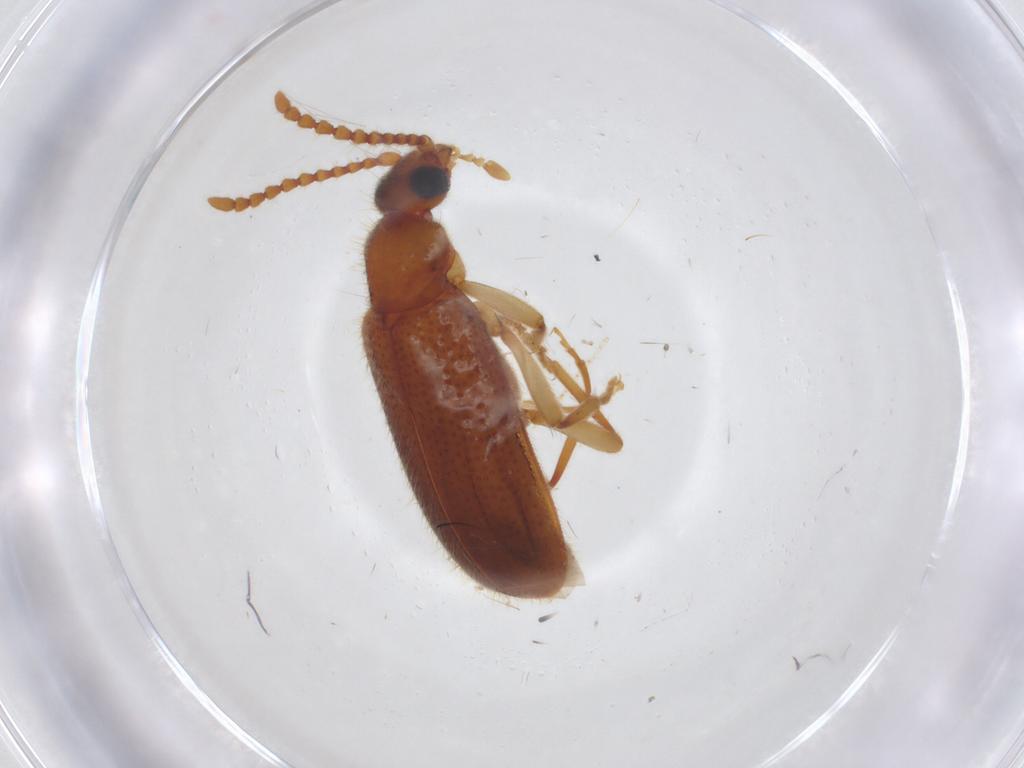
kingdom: Animalia
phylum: Arthropoda
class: Insecta
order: Coleoptera
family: Anthicidae
